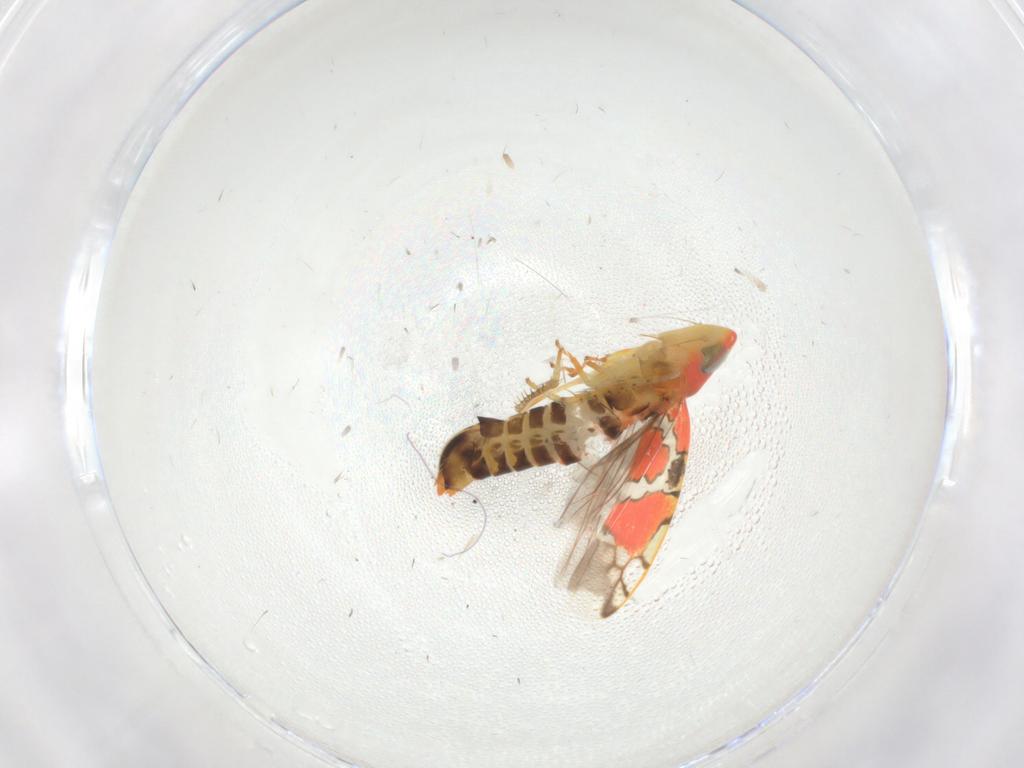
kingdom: Animalia
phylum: Arthropoda
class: Insecta
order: Hemiptera
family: Cicadellidae
